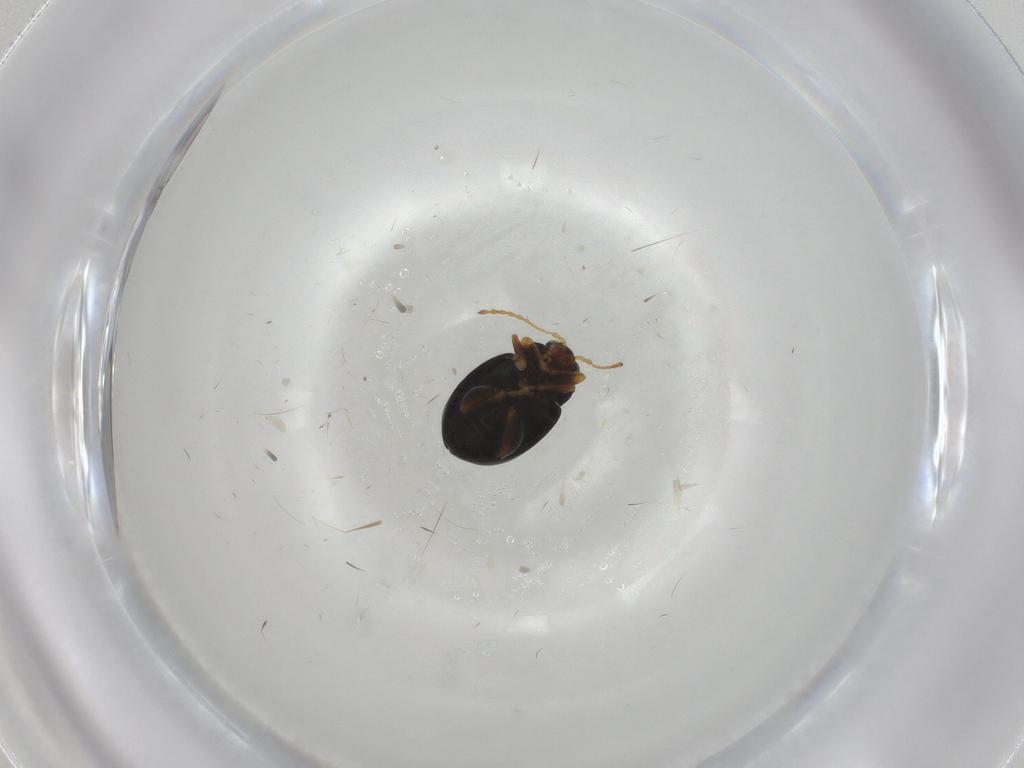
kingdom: Animalia
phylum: Arthropoda
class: Insecta
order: Coleoptera
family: Chrysomelidae
